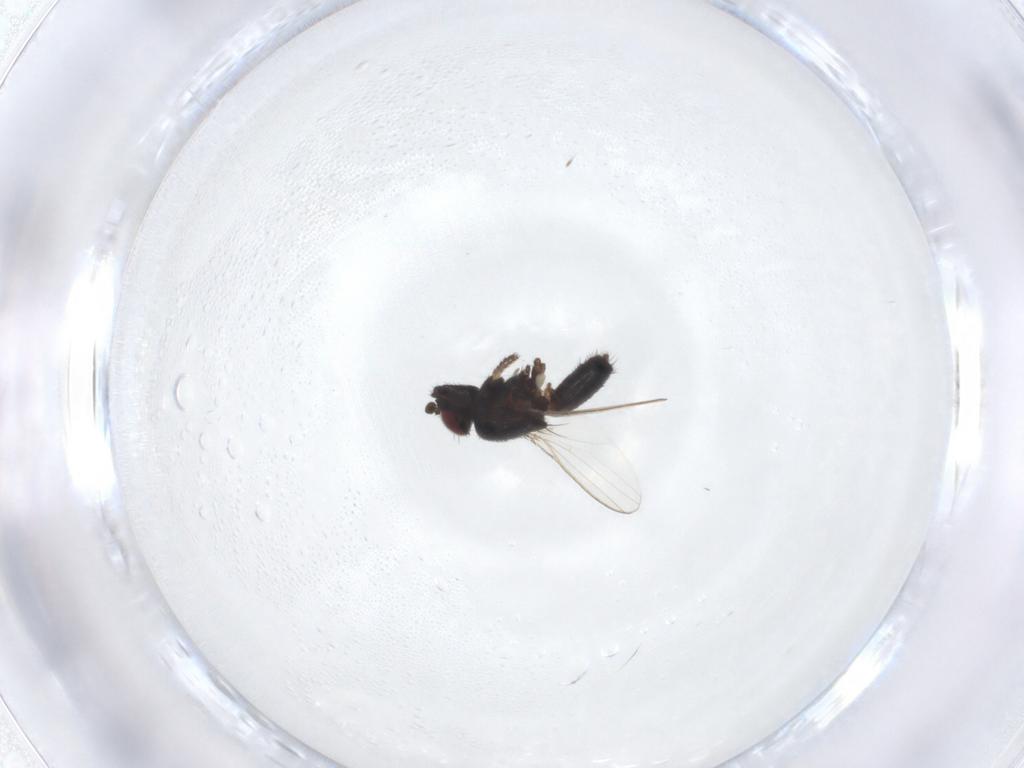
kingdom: Animalia
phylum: Arthropoda
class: Insecta
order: Diptera
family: Milichiidae
